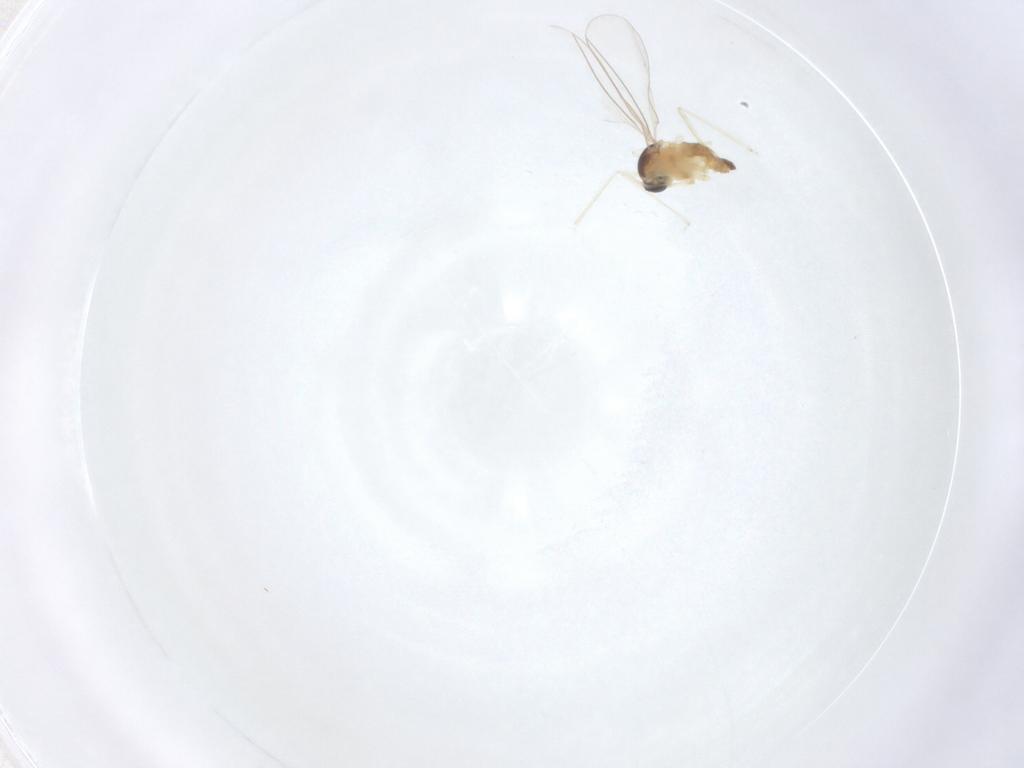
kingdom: Animalia
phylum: Arthropoda
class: Insecta
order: Diptera
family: Cecidomyiidae
